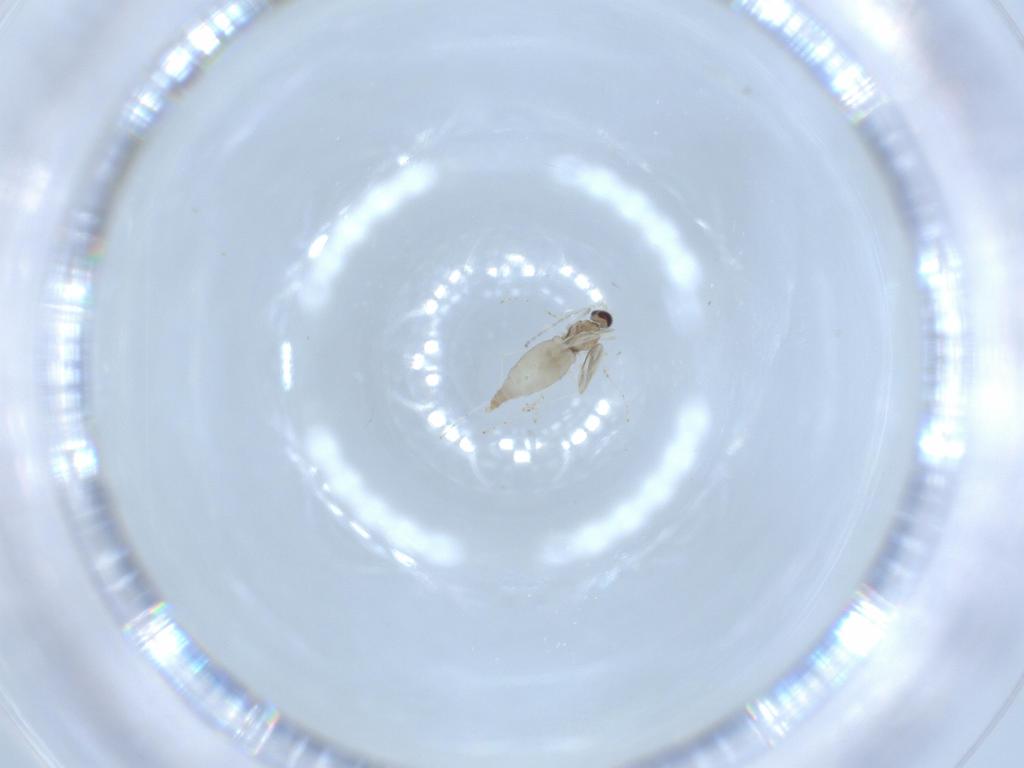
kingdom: Animalia
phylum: Arthropoda
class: Insecta
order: Diptera
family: Cecidomyiidae
